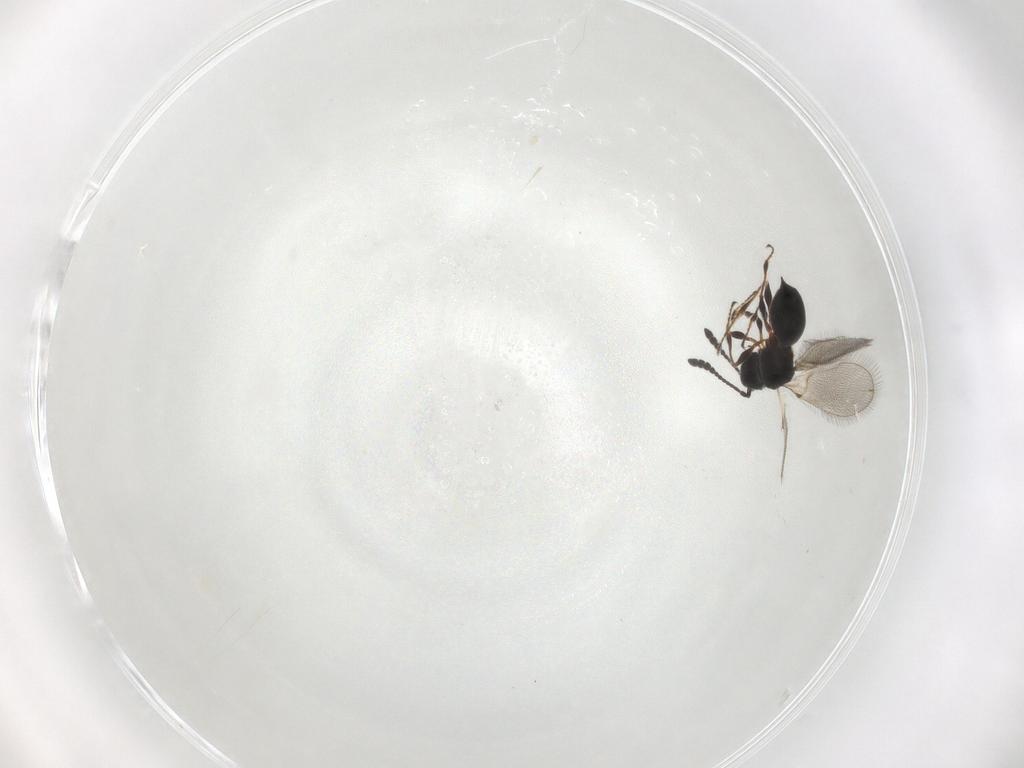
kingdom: Animalia
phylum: Arthropoda
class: Insecta
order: Hymenoptera
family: Diapriidae
